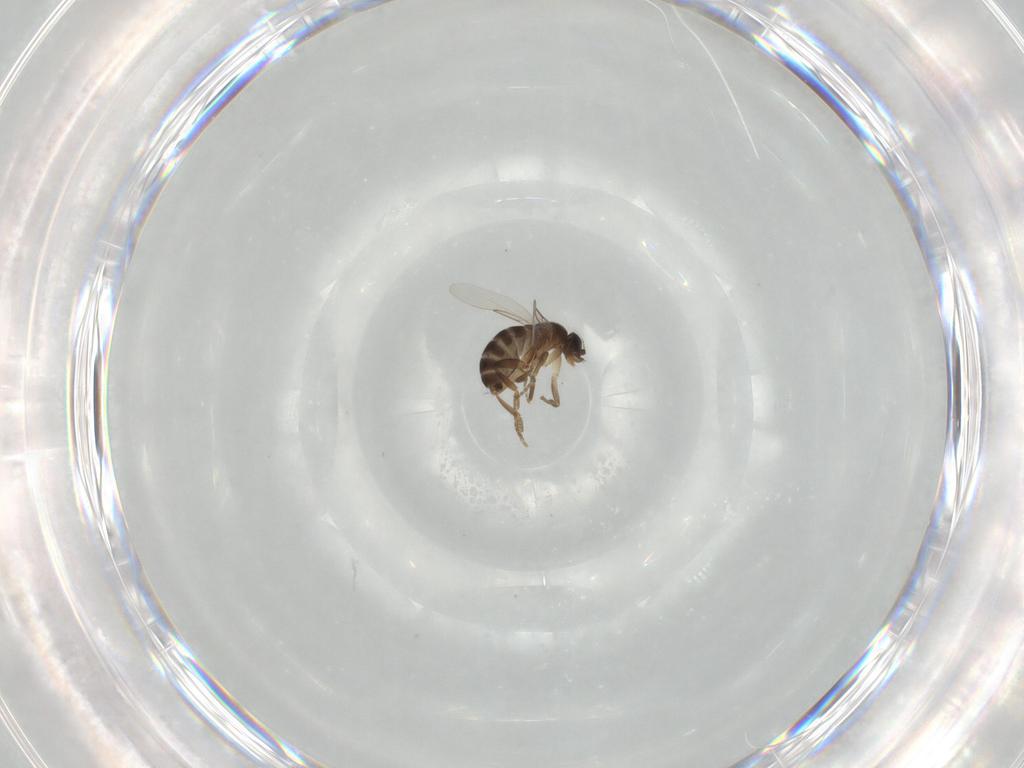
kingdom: Animalia
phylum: Arthropoda
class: Insecta
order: Diptera
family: Phoridae
